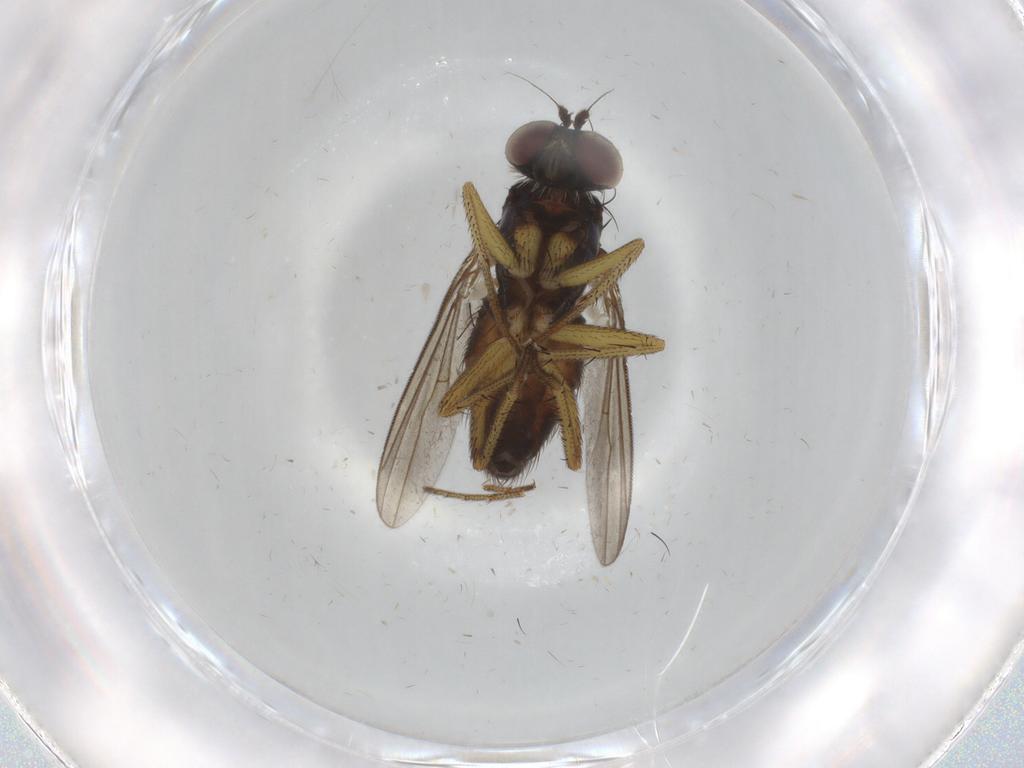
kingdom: Animalia
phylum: Arthropoda
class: Insecta
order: Diptera
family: Dolichopodidae
